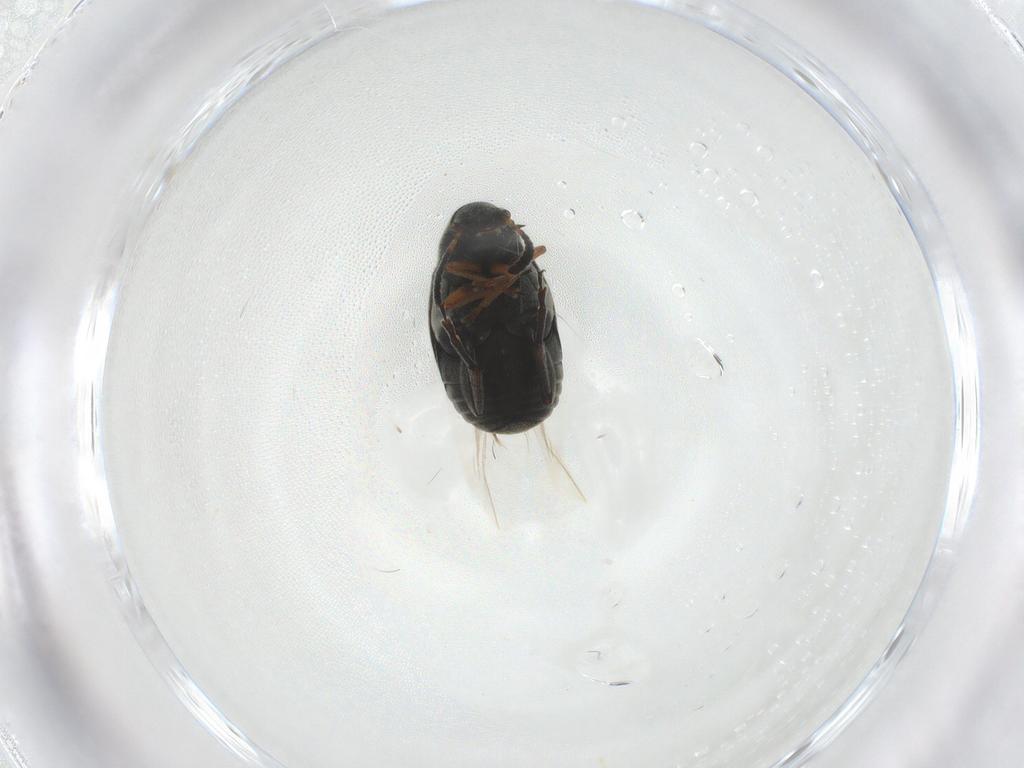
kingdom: Animalia
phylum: Arthropoda
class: Insecta
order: Coleoptera
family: Chrysomelidae
